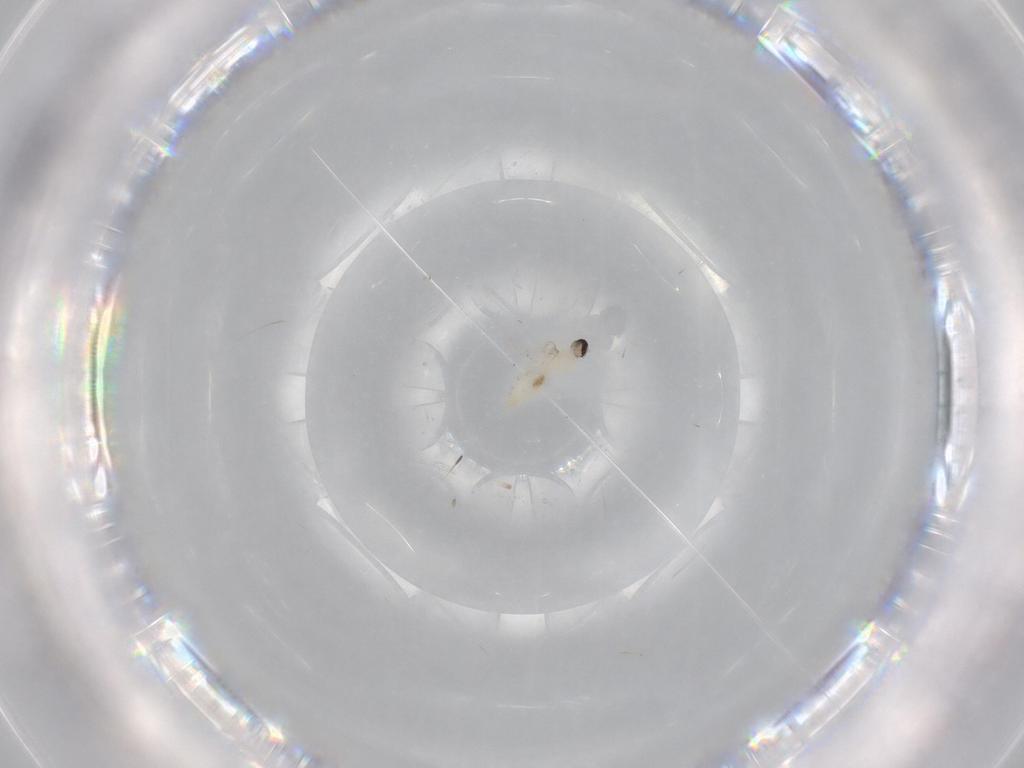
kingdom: Animalia
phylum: Arthropoda
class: Insecta
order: Diptera
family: Cecidomyiidae
